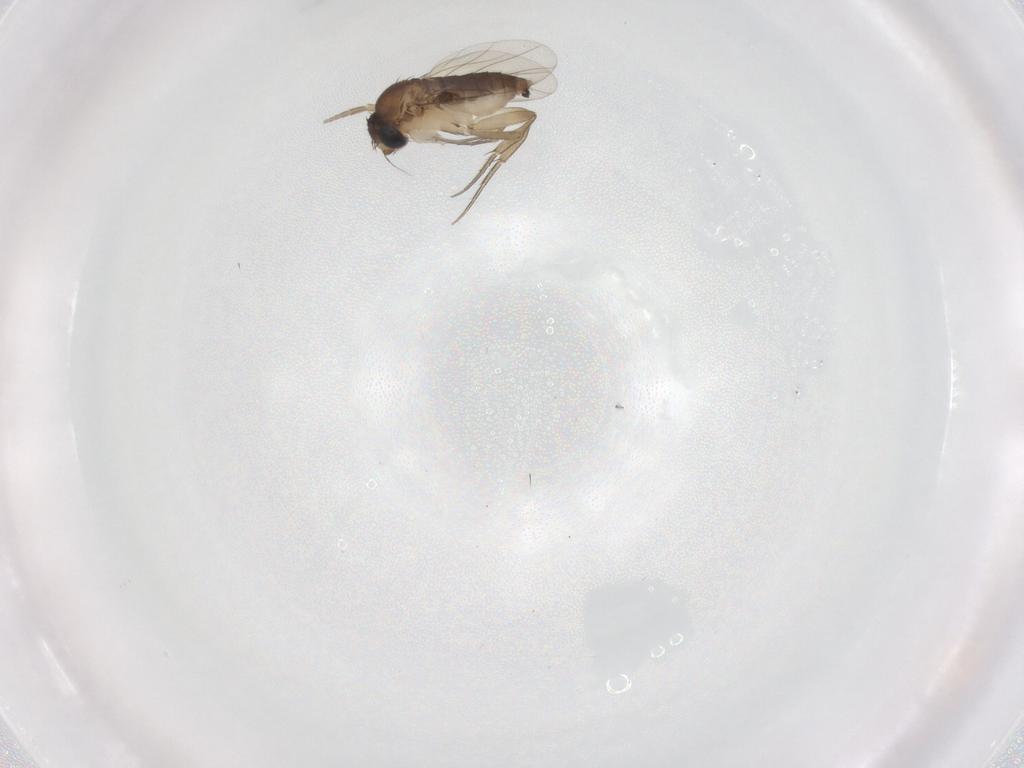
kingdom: Animalia
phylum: Arthropoda
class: Insecta
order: Diptera
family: Phoridae
